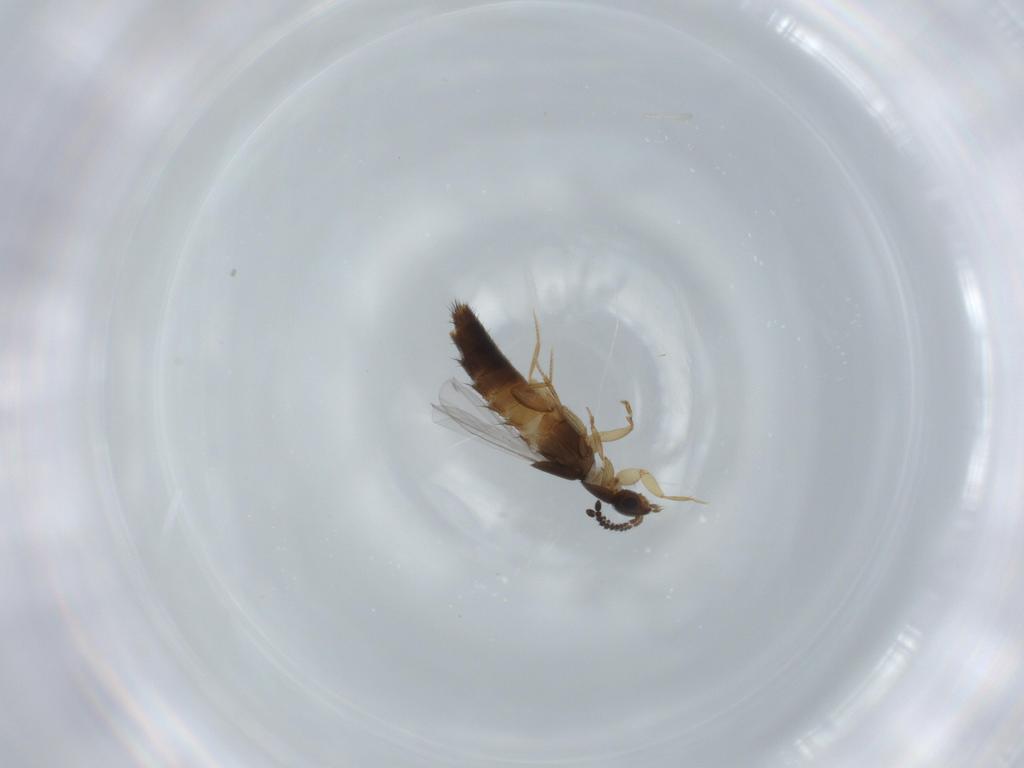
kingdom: Animalia
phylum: Arthropoda
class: Insecta
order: Coleoptera
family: Staphylinidae
